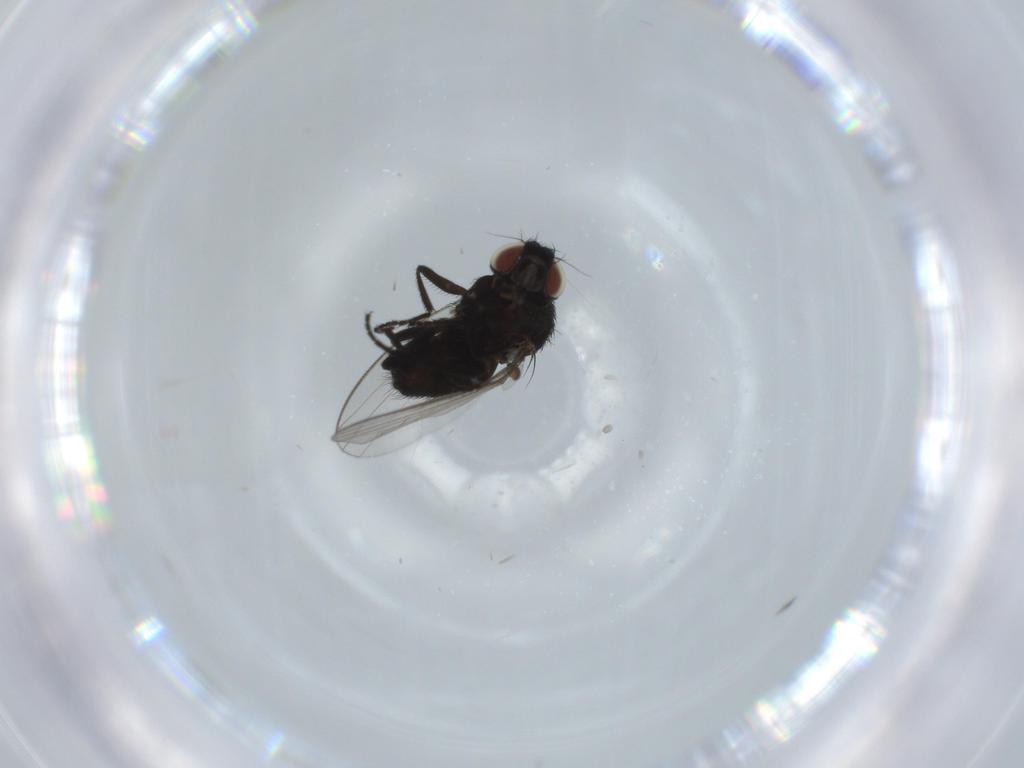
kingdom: Animalia
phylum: Arthropoda
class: Insecta
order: Diptera
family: Milichiidae
